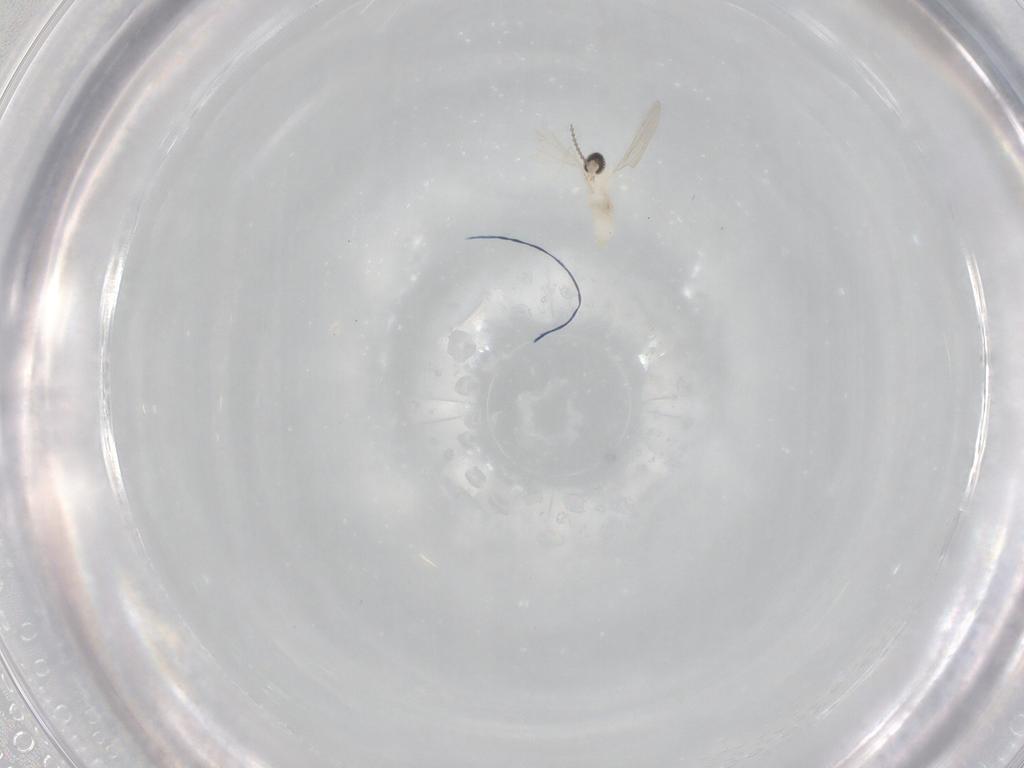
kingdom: Animalia
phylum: Arthropoda
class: Insecta
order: Diptera
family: Cecidomyiidae
